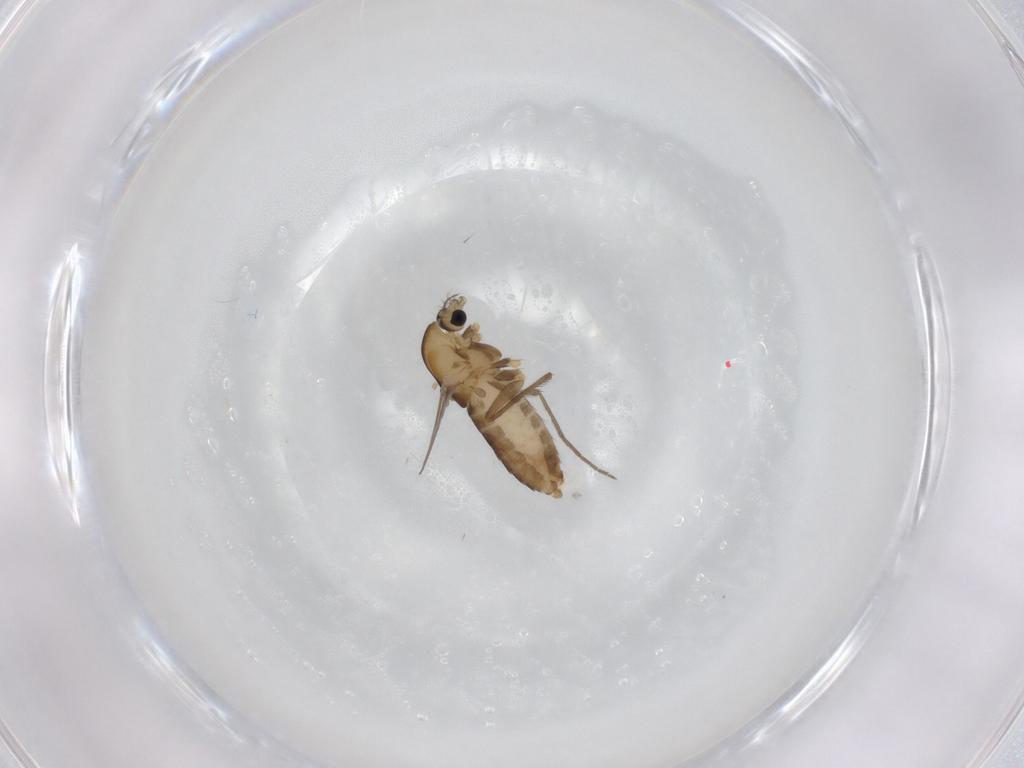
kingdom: Animalia
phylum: Arthropoda
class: Insecta
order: Diptera
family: Chironomidae
